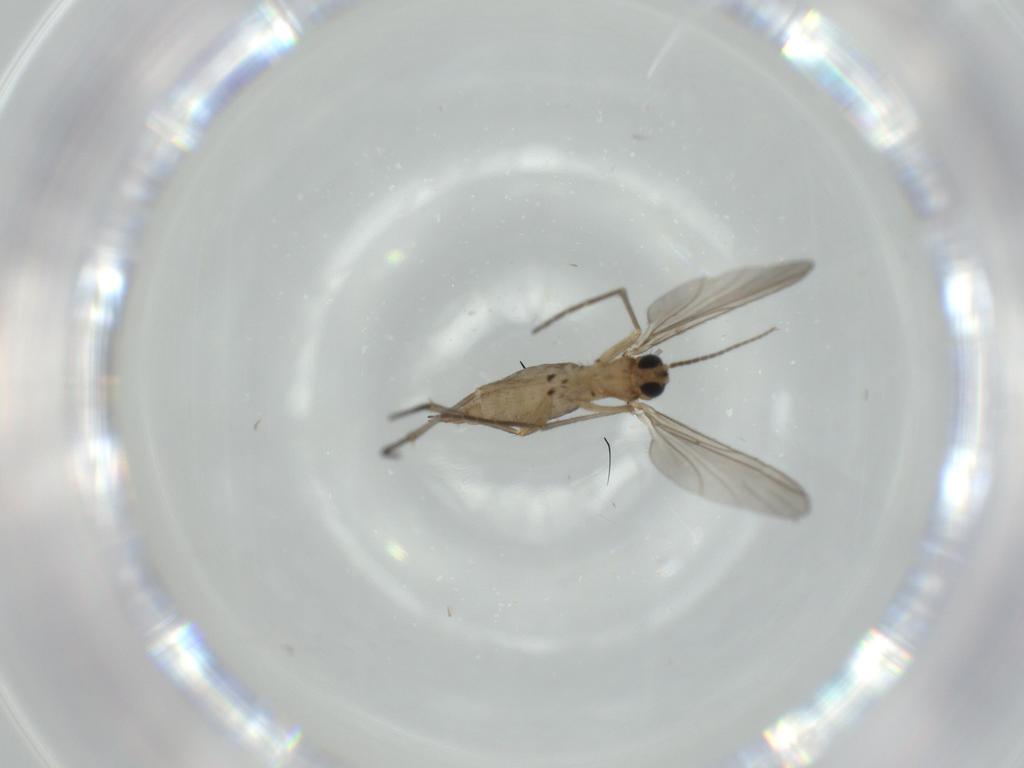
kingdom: Animalia
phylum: Arthropoda
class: Insecta
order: Diptera
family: Sciaridae
